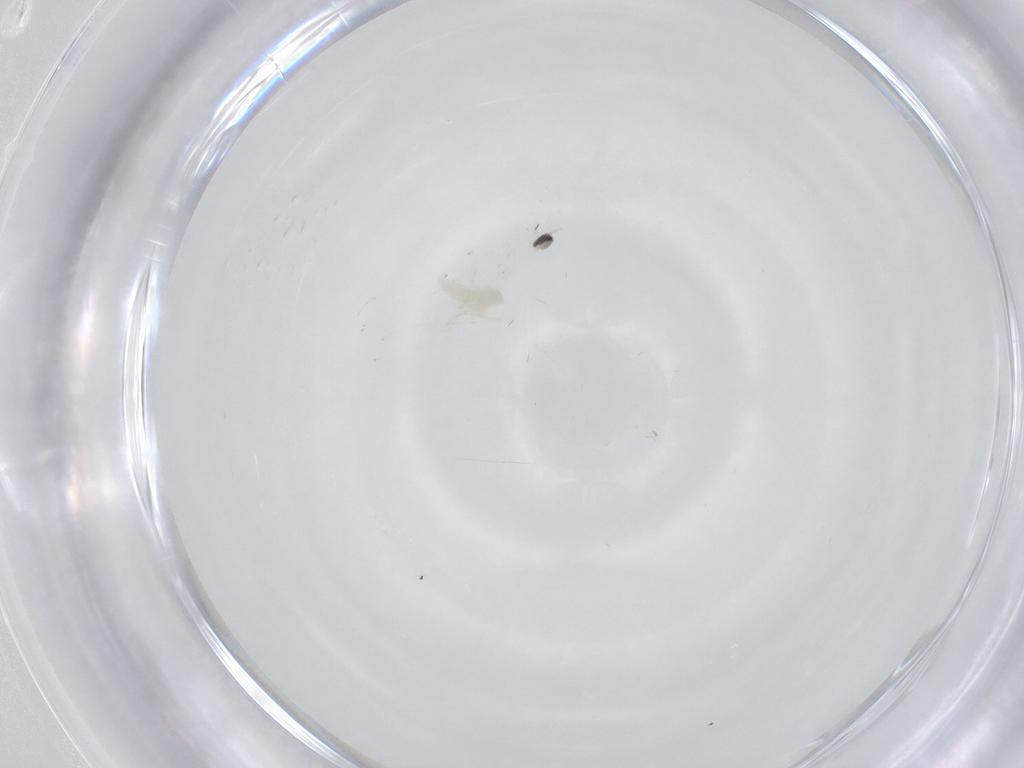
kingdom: Animalia
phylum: Arthropoda
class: Insecta
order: Diptera
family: Cecidomyiidae
